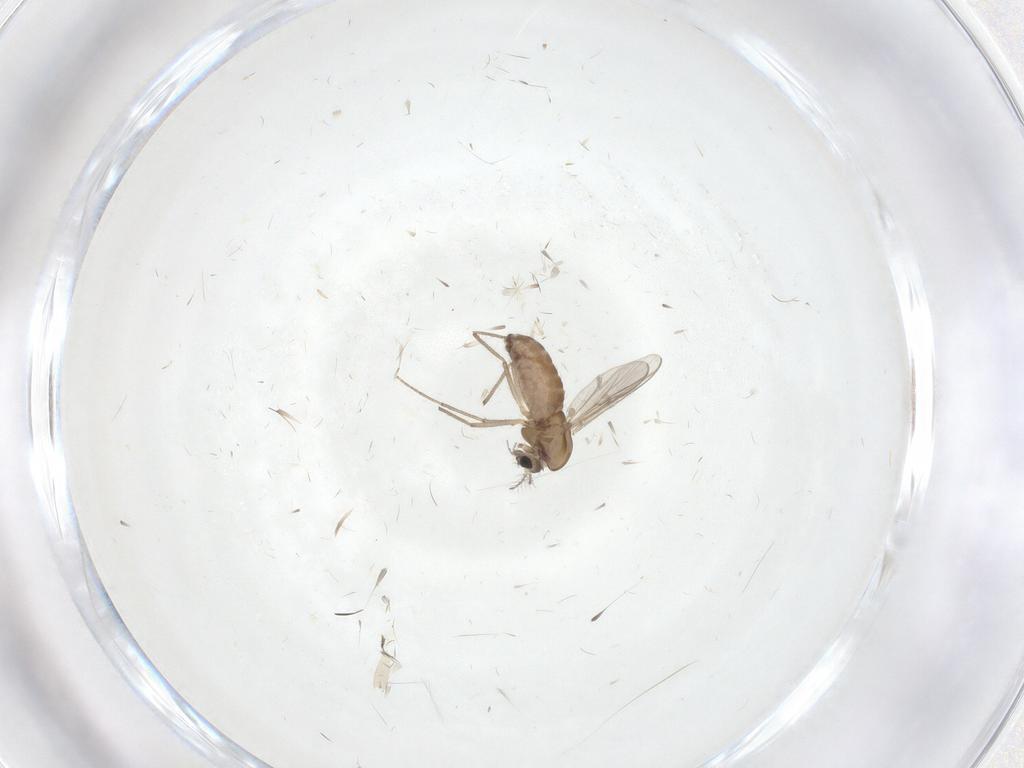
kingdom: Animalia
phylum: Arthropoda
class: Insecta
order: Diptera
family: Chironomidae
